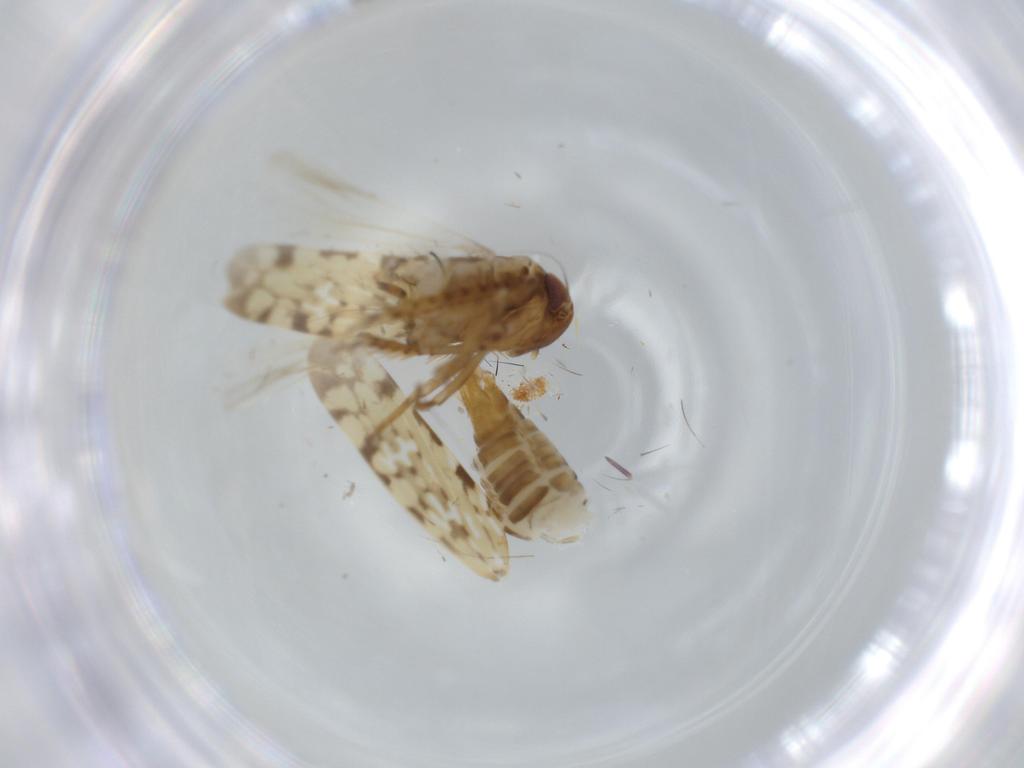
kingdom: Animalia
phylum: Arthropoda
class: Insecta
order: Hemiptera
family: Cicadellidae
